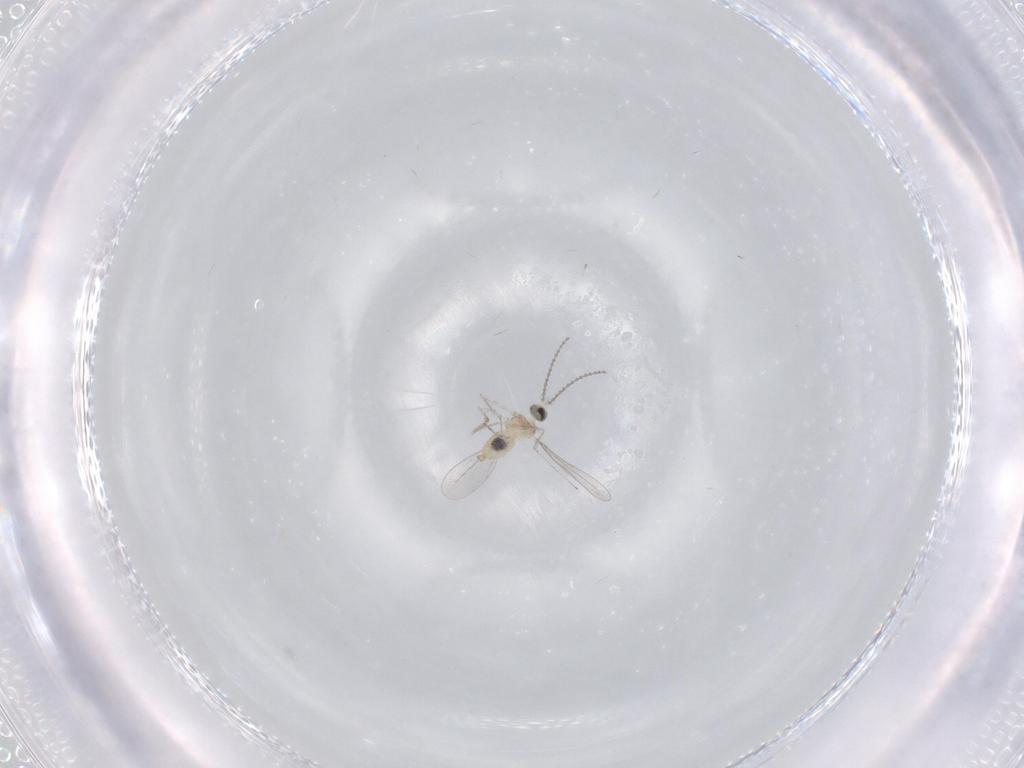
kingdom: Animalia
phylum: Arthropoda
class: Insecta
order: Diptera
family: Cecidomyiidae
